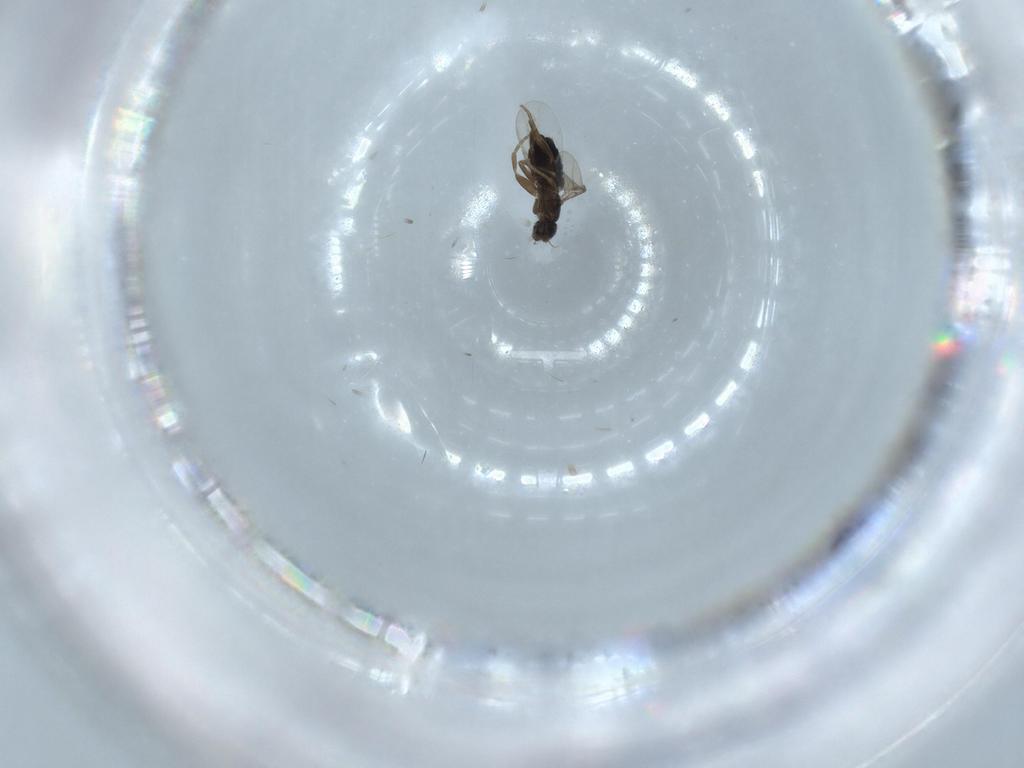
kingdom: Animalia
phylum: Arthropoda
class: Insecta
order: Diptera
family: Phoridae
